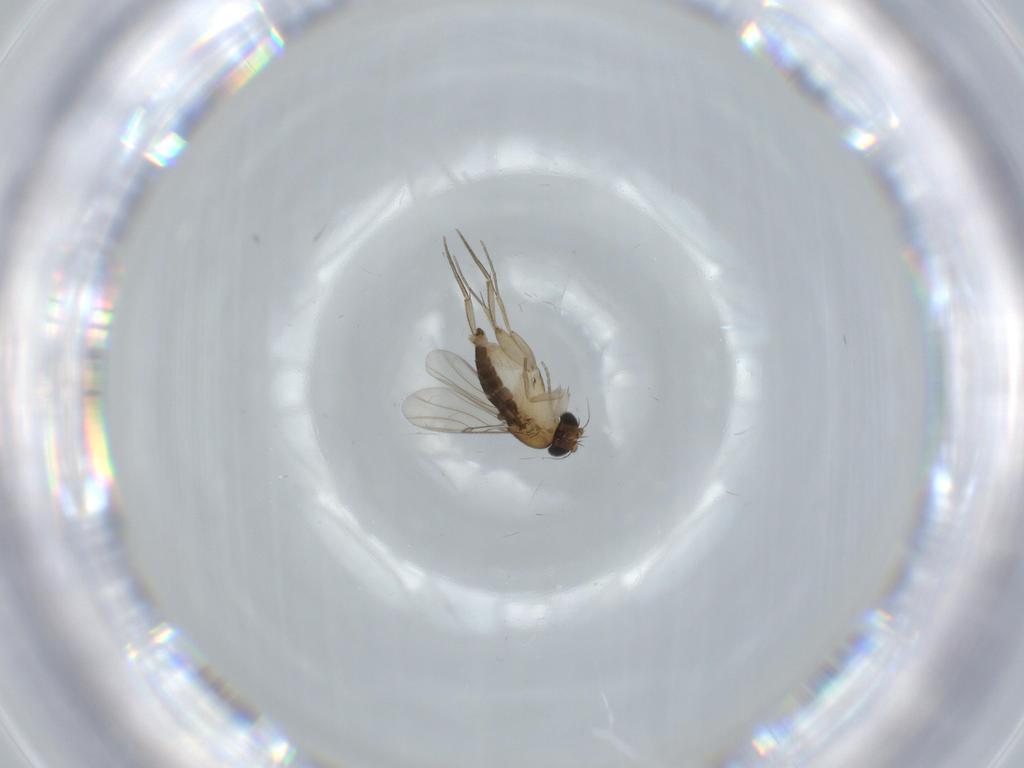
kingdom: Animalia
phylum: Arthropoda
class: Insecta
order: Diptera
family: Phoridae
